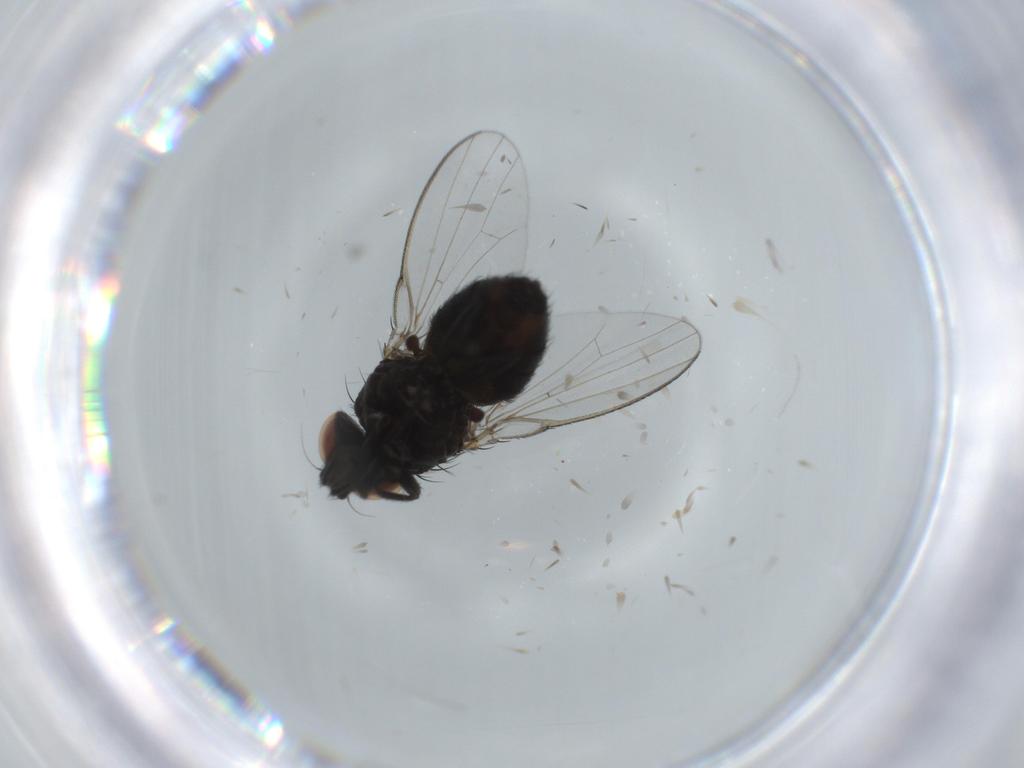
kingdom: Animalia
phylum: Arthropoda
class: Insecta
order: Diptera
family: Milichiidae
